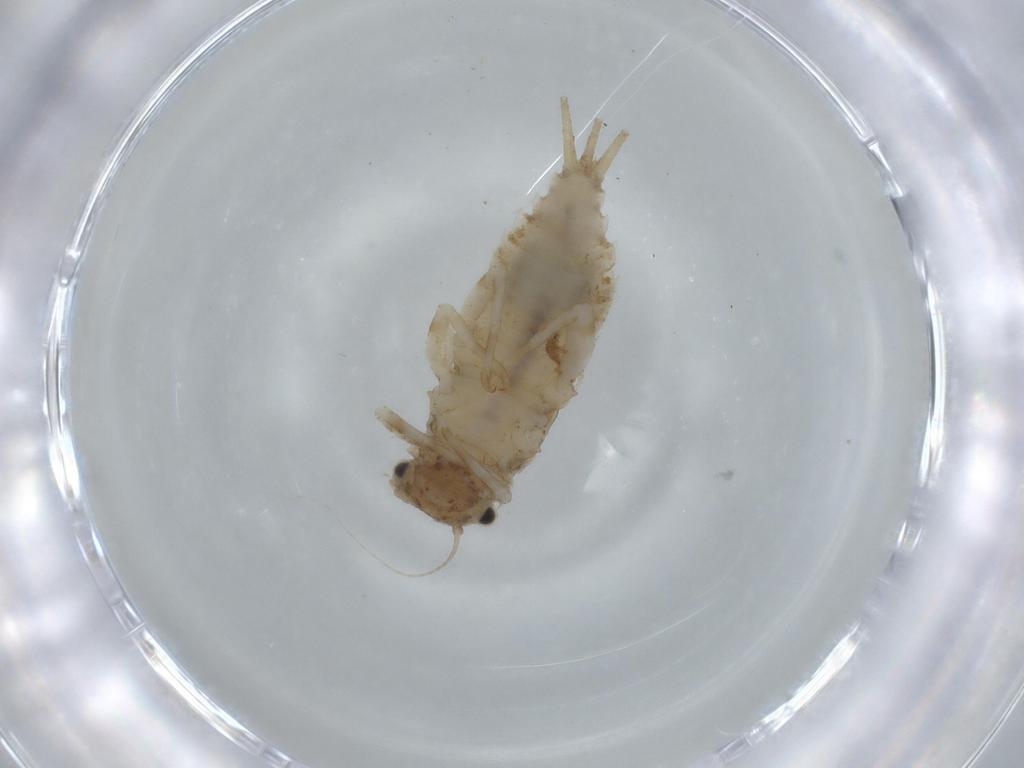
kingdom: Animalia
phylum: Arthropoda
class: Insecta
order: Ephemeroptera
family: Caenidae
